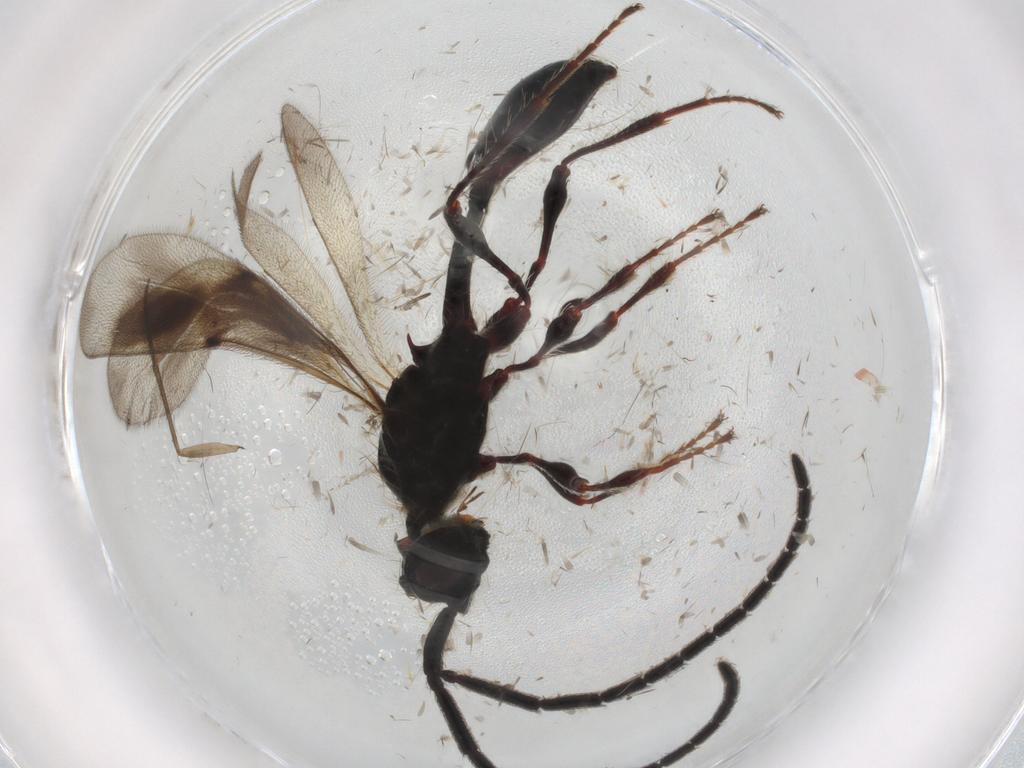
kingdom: Animalia
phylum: Arthropoda
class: Insecta
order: Hymenoptera
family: Diapriidae
